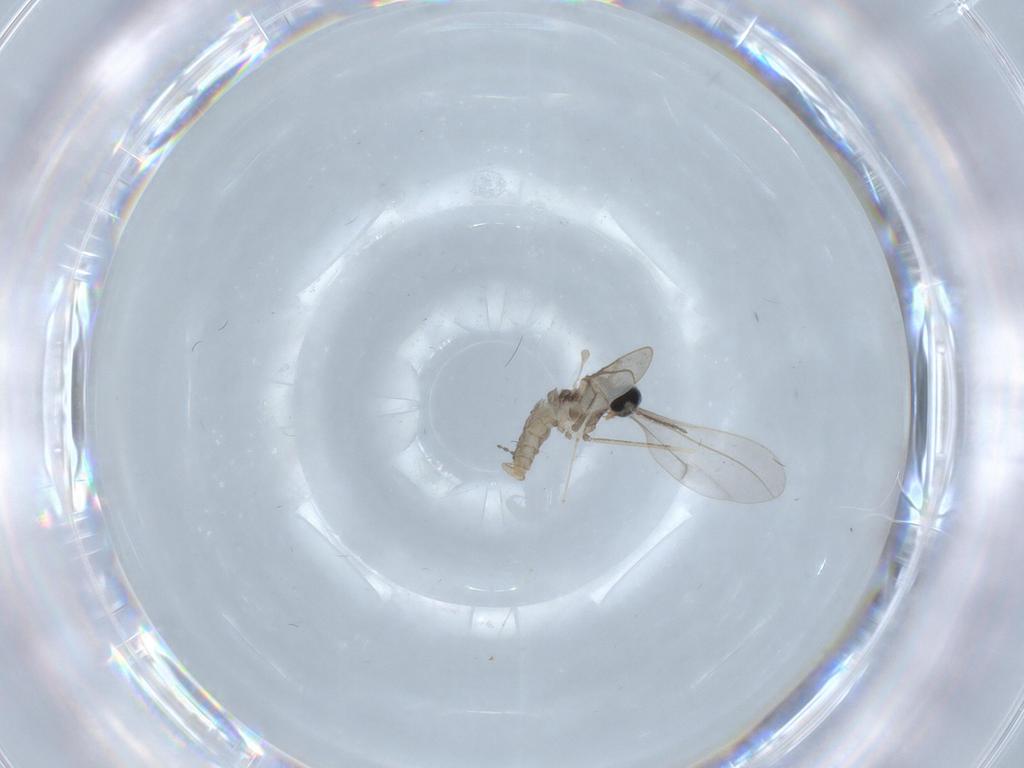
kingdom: Animalia
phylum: Arthropoda
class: Insecta
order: Diptera
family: Cecidomyiidae
